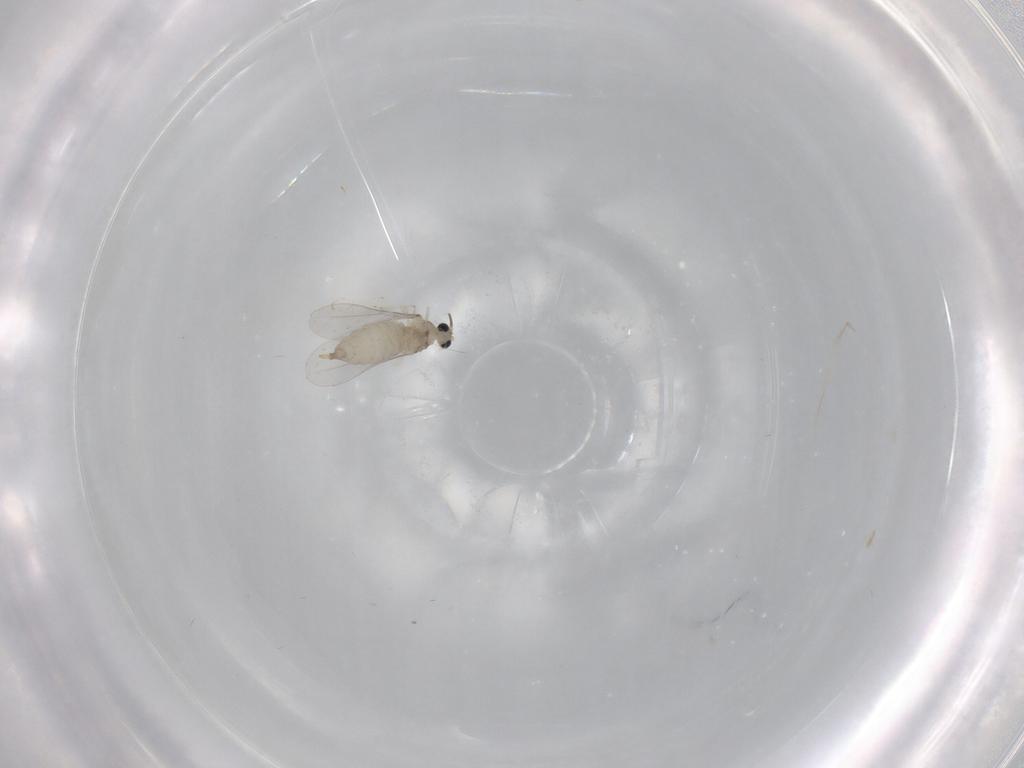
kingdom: Animalia
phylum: Arthropoda
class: Insecta
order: Diptera
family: Cecidomyiidae
